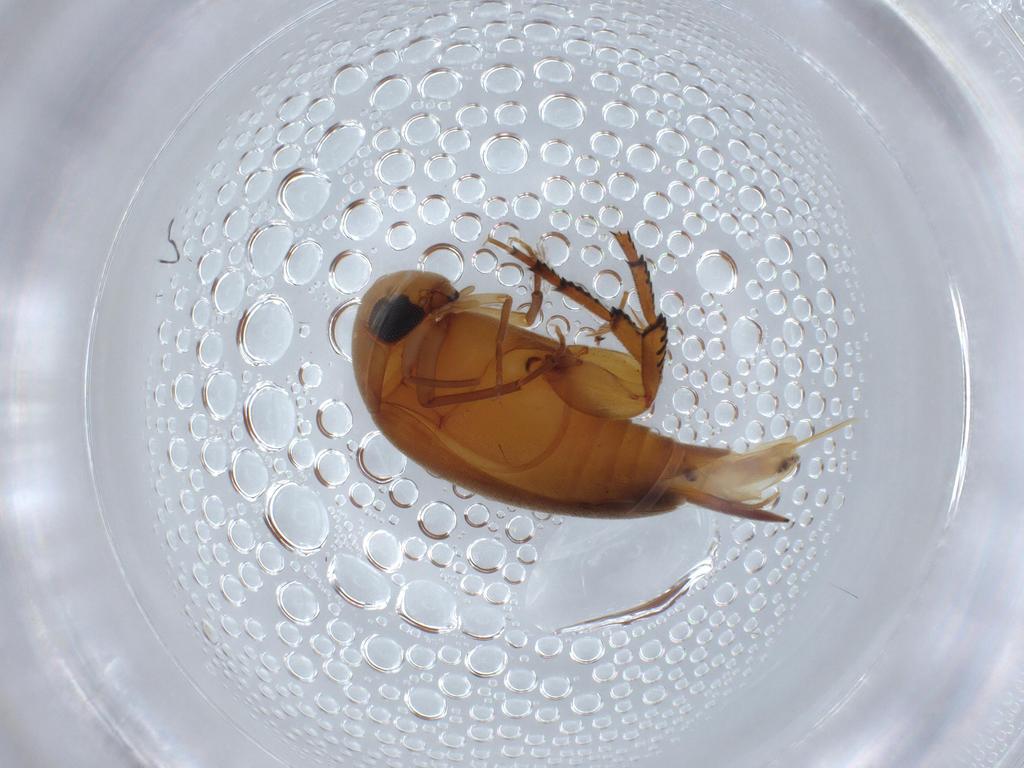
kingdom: Animalia
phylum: Arthropoda
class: Insecta
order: Coleoptera
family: Mordellidae
